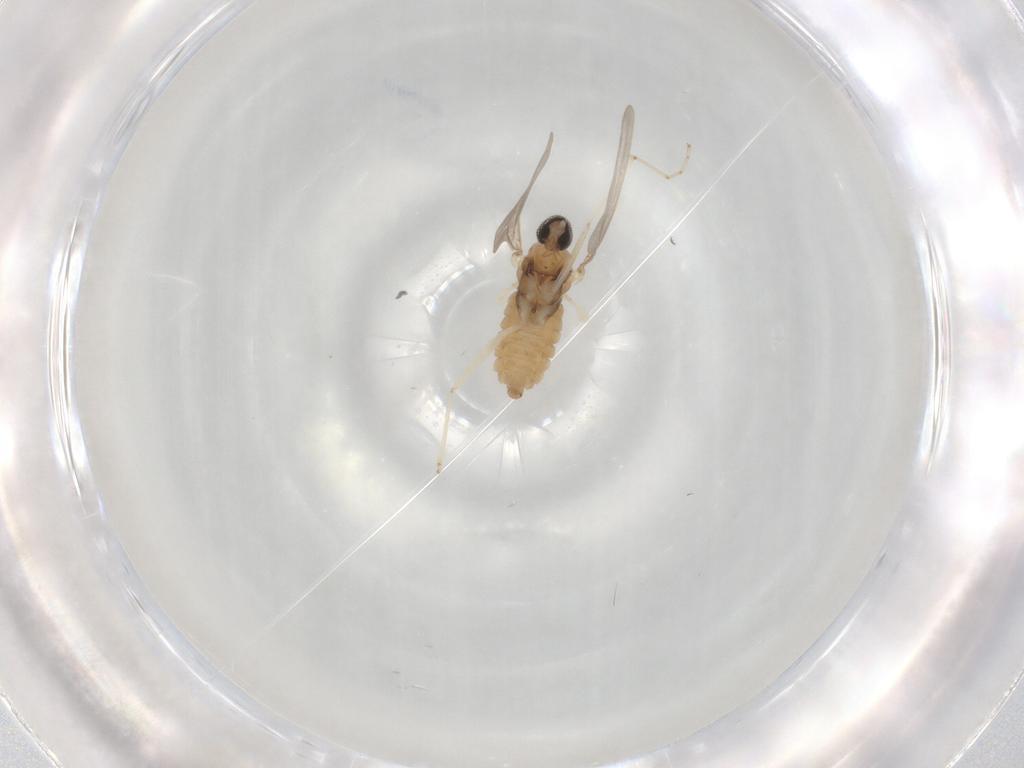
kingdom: Animalia
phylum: Arthropoda
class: Insecta
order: Diptera
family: Cecidomyiidae
